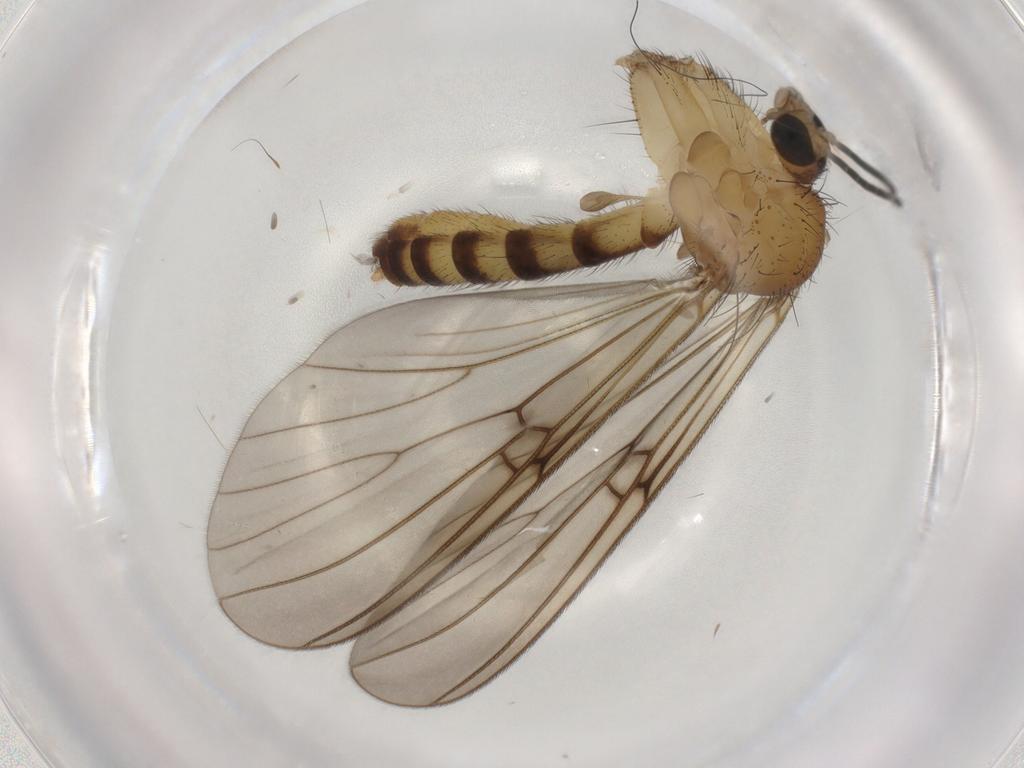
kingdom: Animalia
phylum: Arthropoda
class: Insecta
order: Diptera
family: Mycetophilidae
